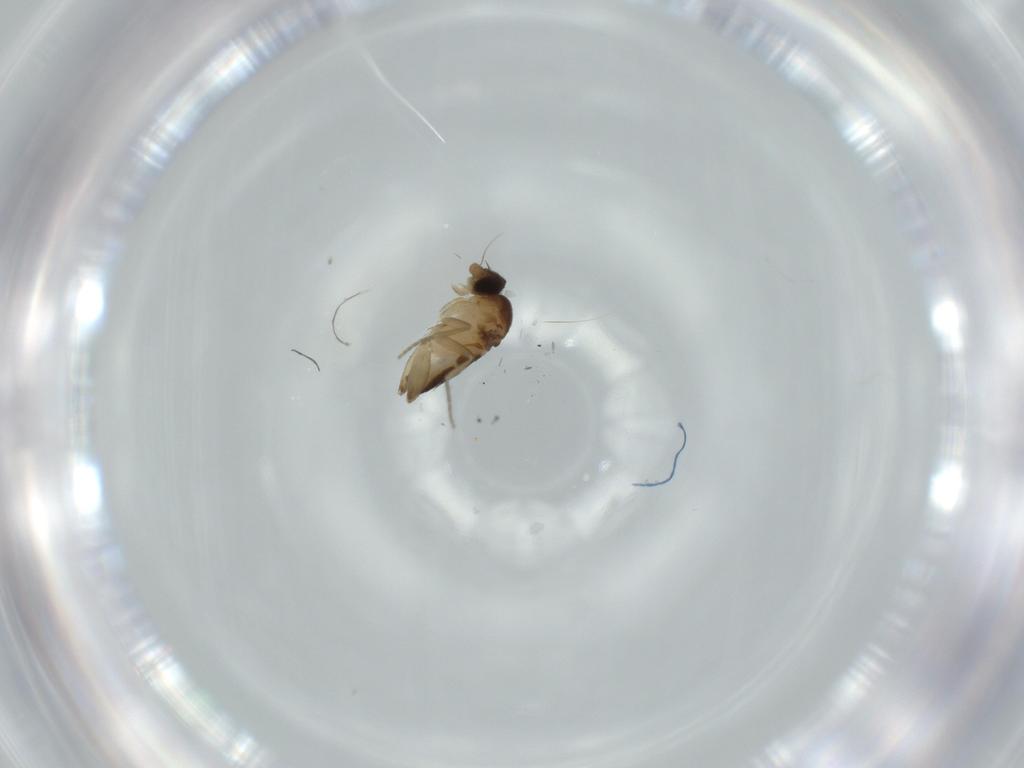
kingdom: Animalia
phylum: Arthropoda
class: Insecta
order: Diptera
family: Phoridae
